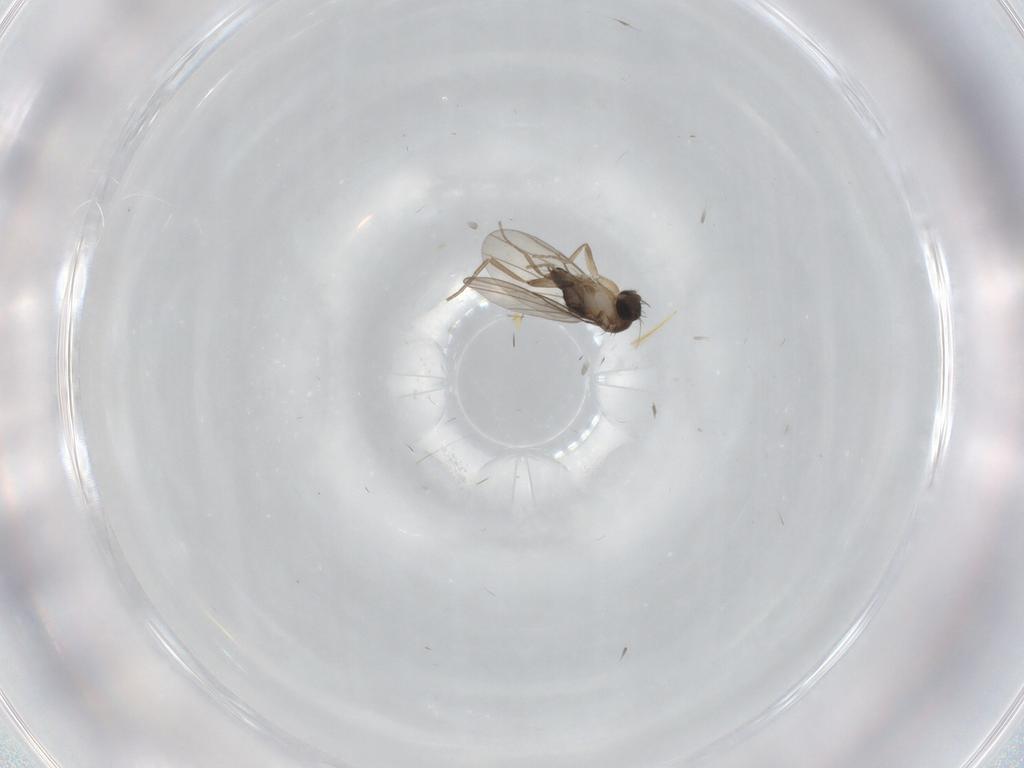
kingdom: Animalia
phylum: Arthropoda
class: Insecta
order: Diptera
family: Phoridae
